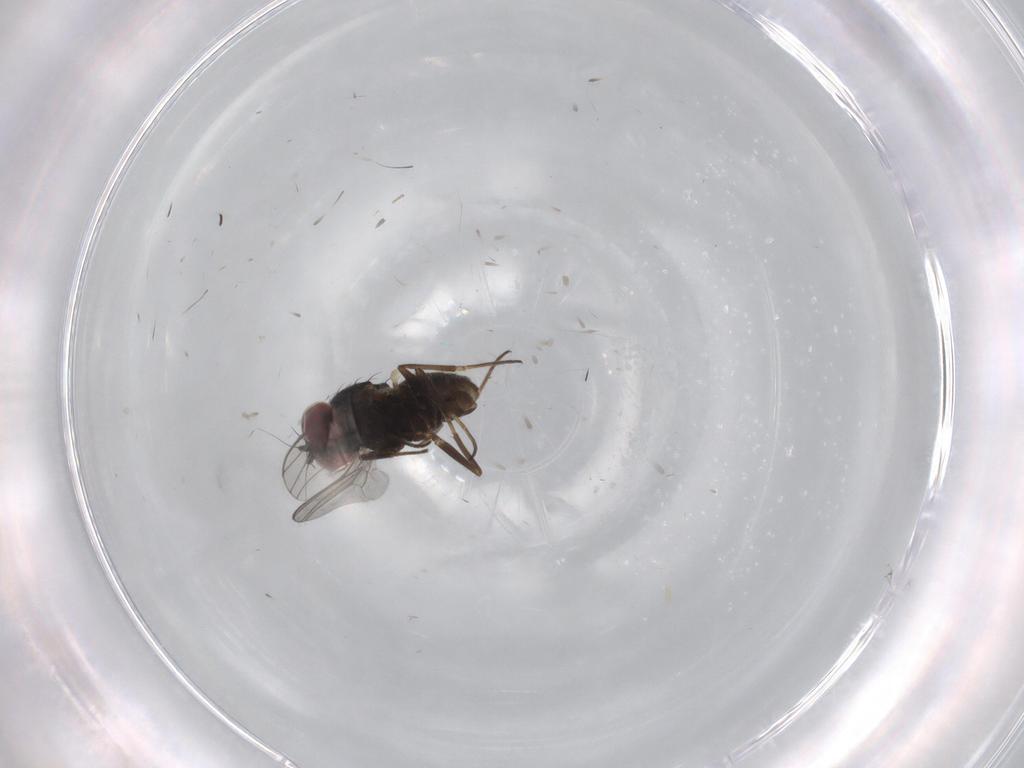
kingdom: Animalia
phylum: Arthropoda
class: Insecta
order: Diptera
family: Dolichopodidae
